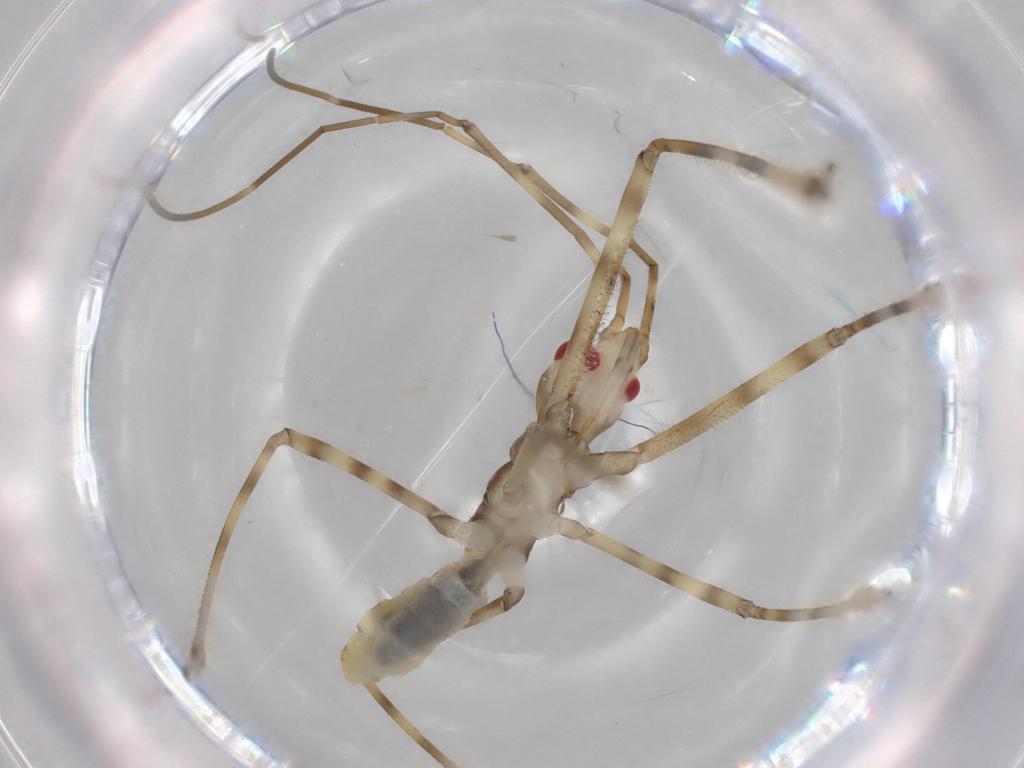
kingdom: Animalia
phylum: Arthropoda
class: Insecta
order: Hemiptera
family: Reduviidae
